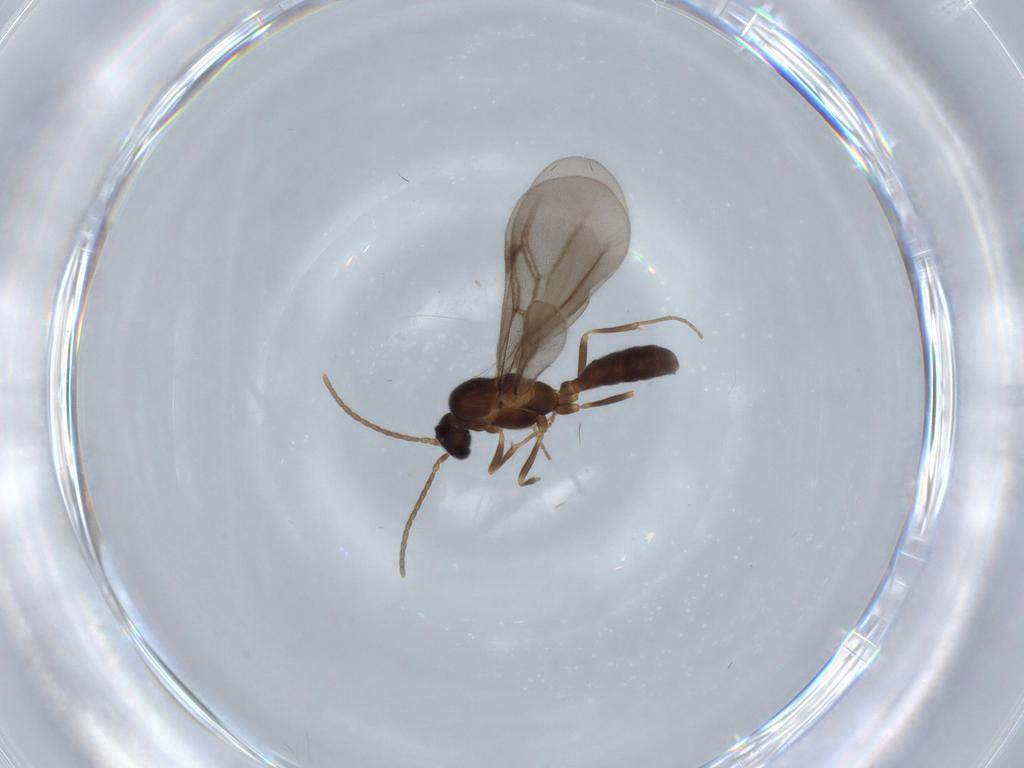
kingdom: Animalia
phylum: Arthropoda
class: Insecta
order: Hymenoptera
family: Formicidae
